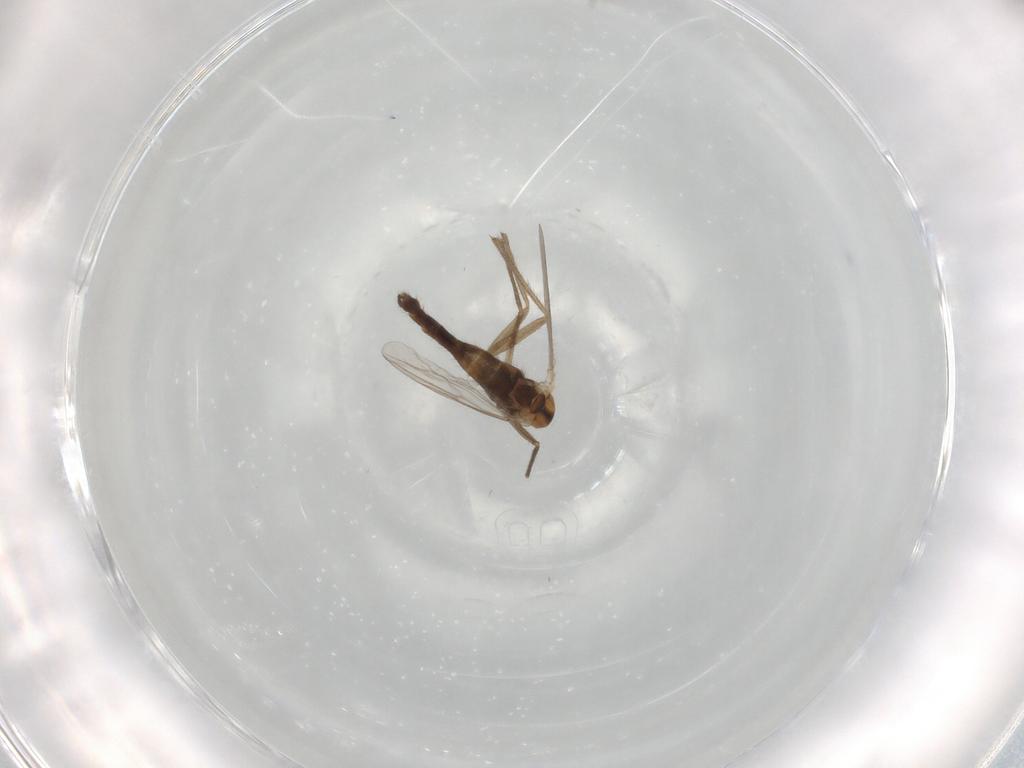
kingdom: Animalia
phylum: Arthropoda
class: Insecta
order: Diptera
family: Chironomidae
